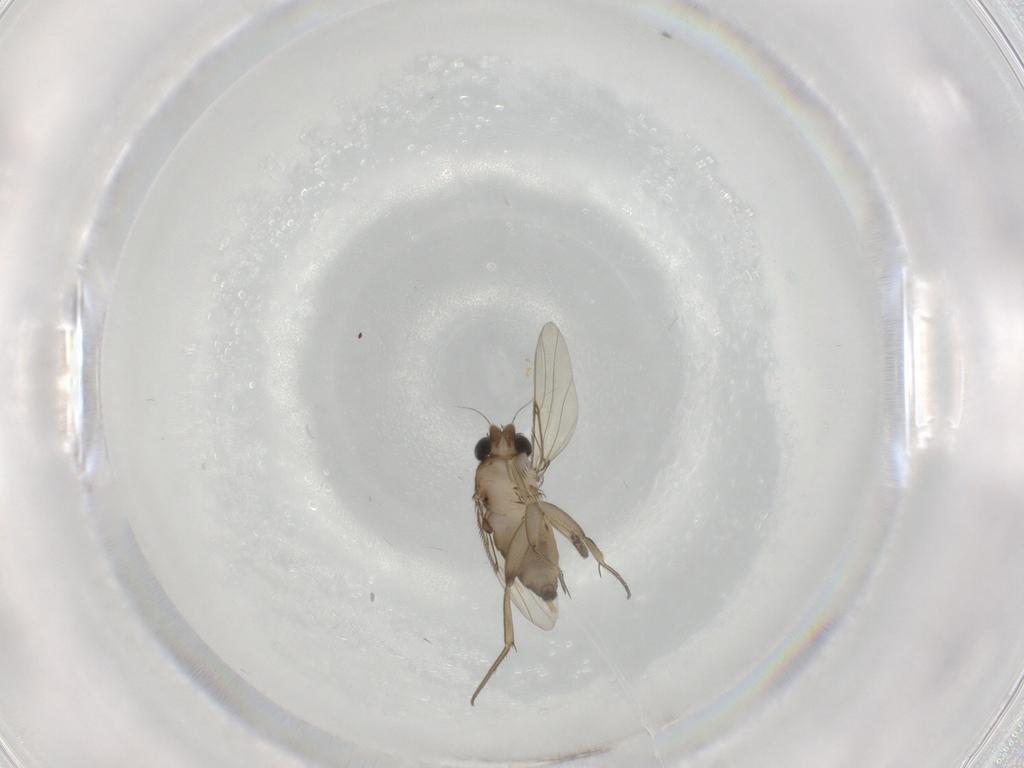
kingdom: Animalia
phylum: Arthropoda
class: Insecta
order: Diptera
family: Phoridae
